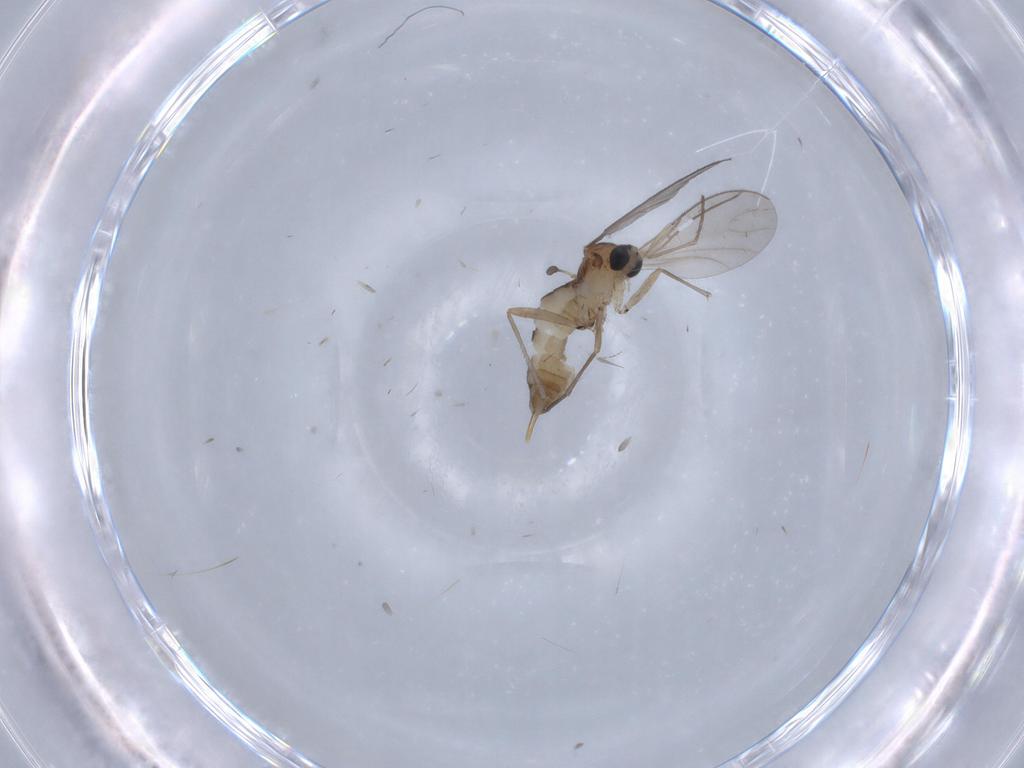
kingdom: Animalia
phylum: Arthropoda
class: Insecta
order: Diptera
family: Sciaridae
